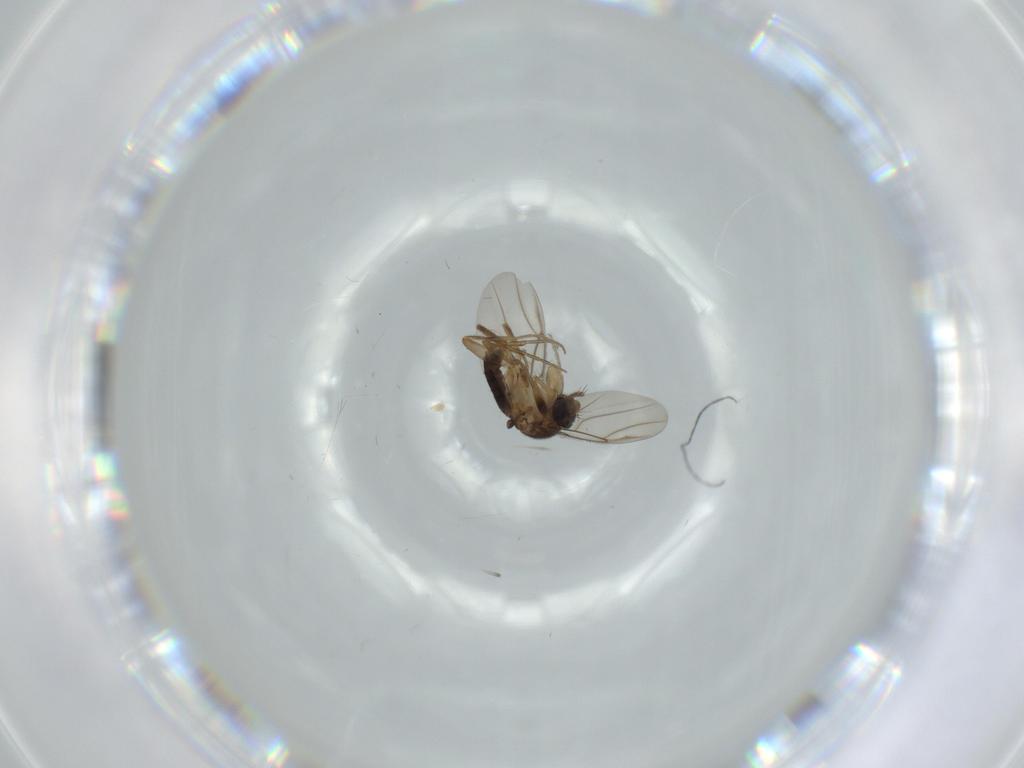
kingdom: Animalia
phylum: Arthropoda
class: Insecta
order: Diptera
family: Phoridae
